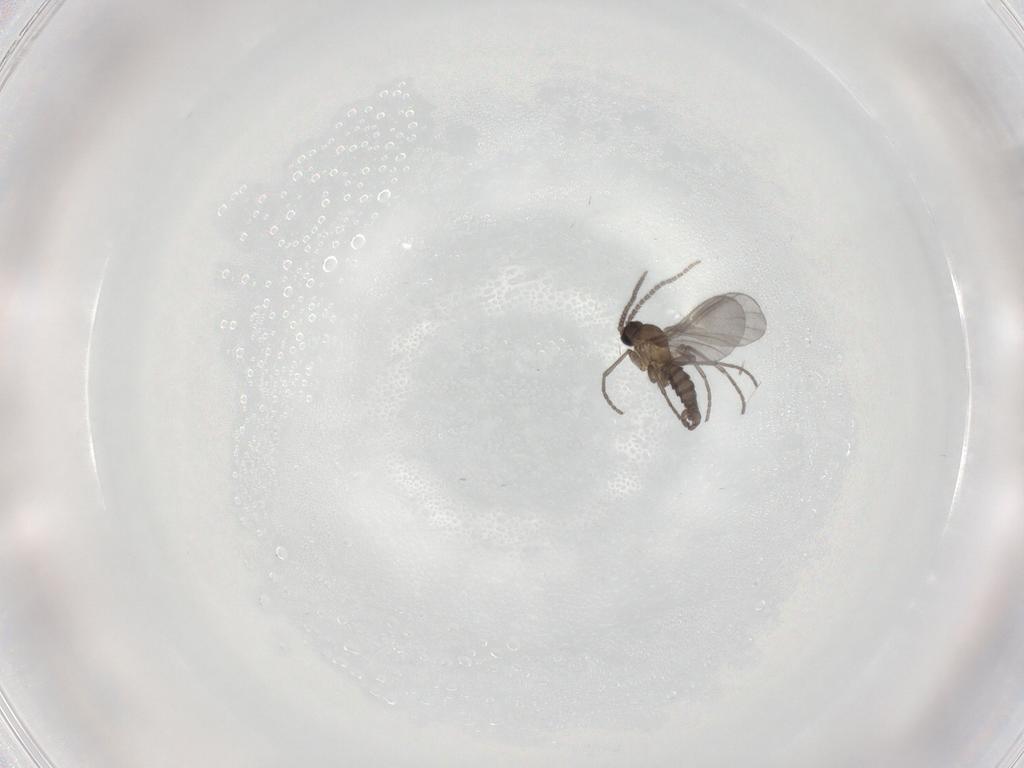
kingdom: Animalia
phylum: Arthropoda
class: Insecta
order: Diptera
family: Sciaridae
